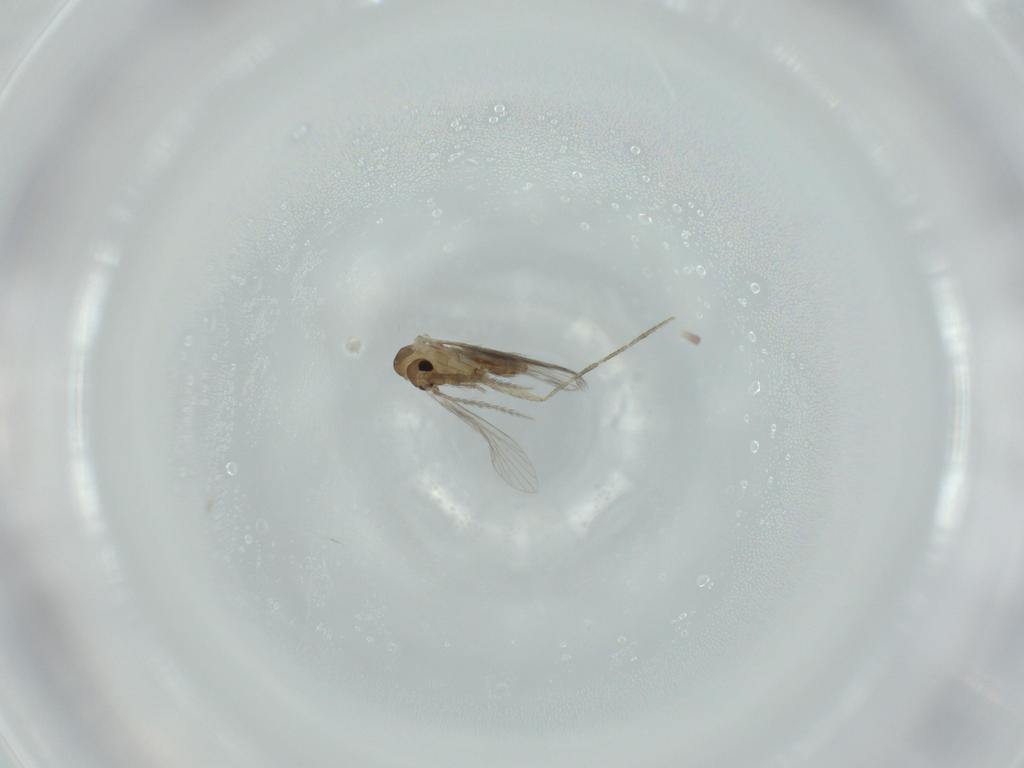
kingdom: Animalia
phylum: Arthropoda
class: Insecta
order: Diptera
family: Psychodidae
